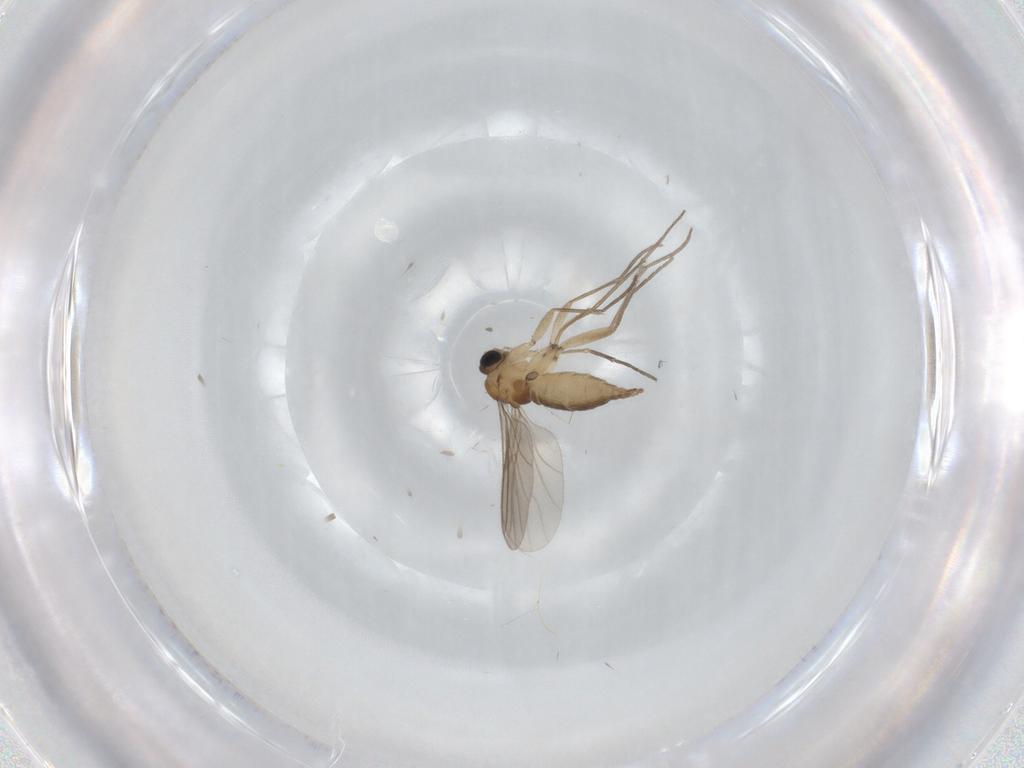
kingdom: Animalia
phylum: Arthropoda
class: Insecta
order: Diptera
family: Sciaridae
